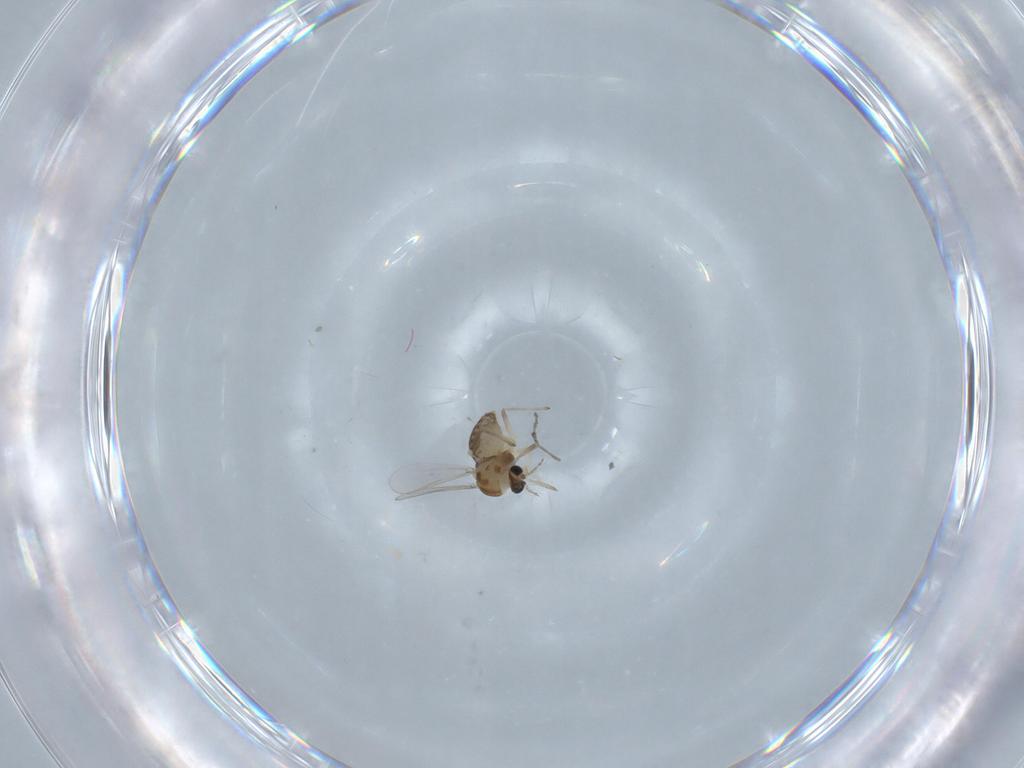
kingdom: Animalia
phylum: Arthropoda
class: Insecta
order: Diptera
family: Chironomidae
